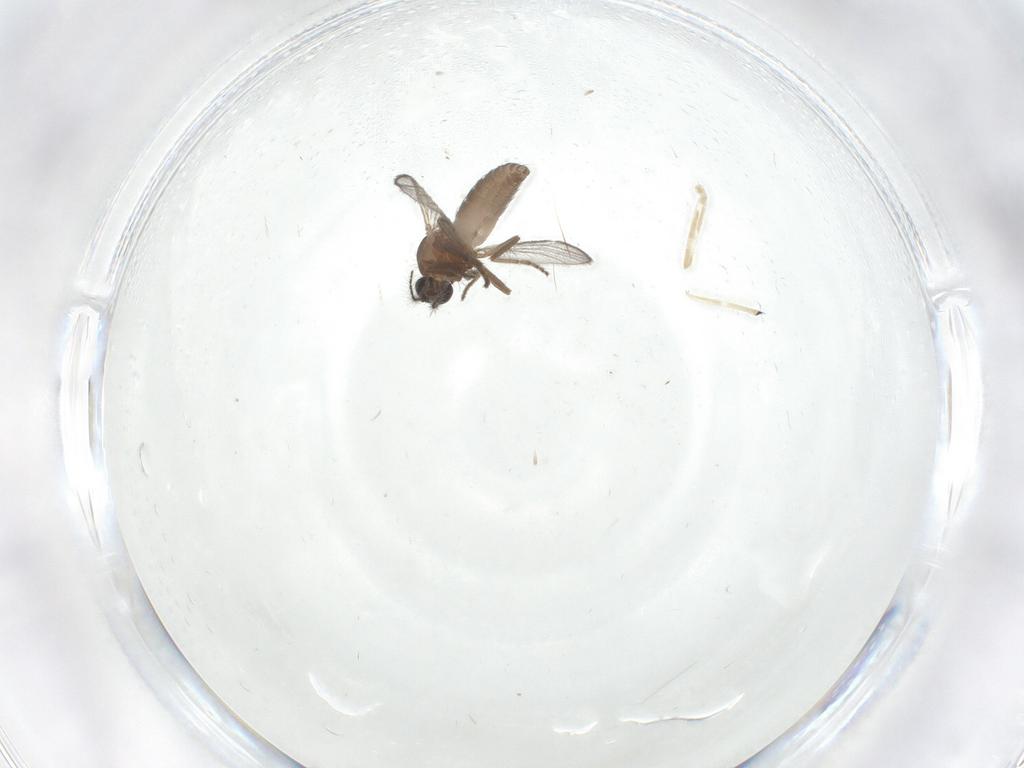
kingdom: Animalia
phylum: Arthropoda
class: Insecta
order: Diptera
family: Ceratopogonidae
